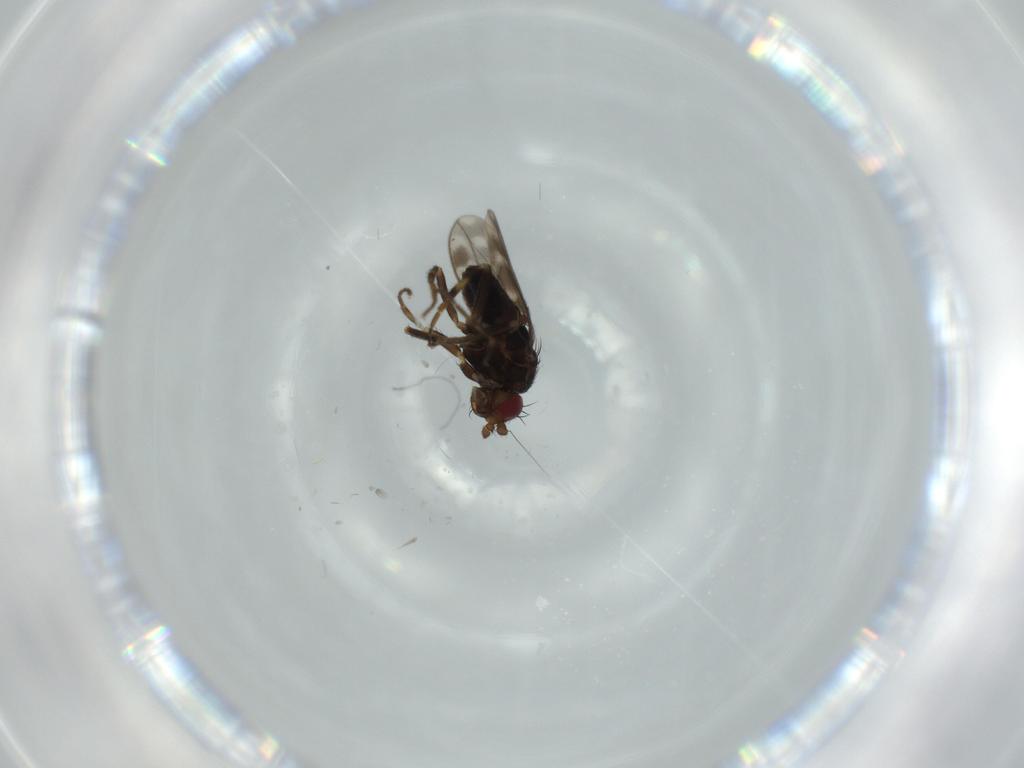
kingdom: Animalia
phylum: Arthropoda
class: Insecta
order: Diptera
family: Sphaeroceridae
